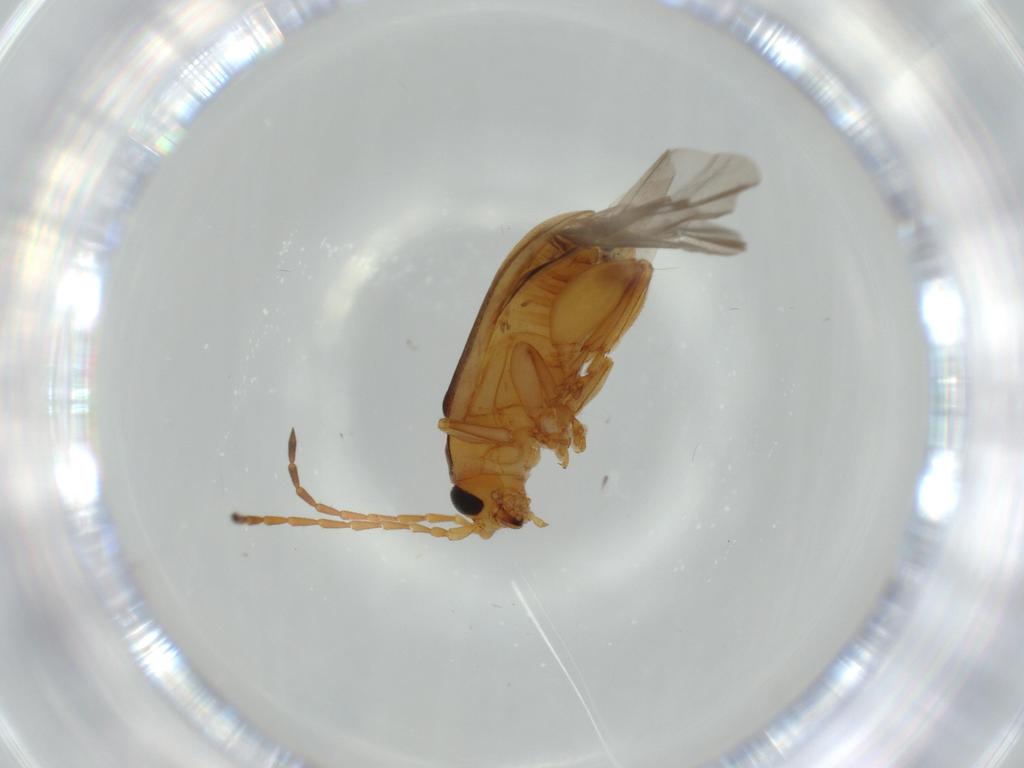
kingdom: Animalia
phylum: Arthropoda
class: Insecta
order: Coleoptera
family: Chrysomelidae
